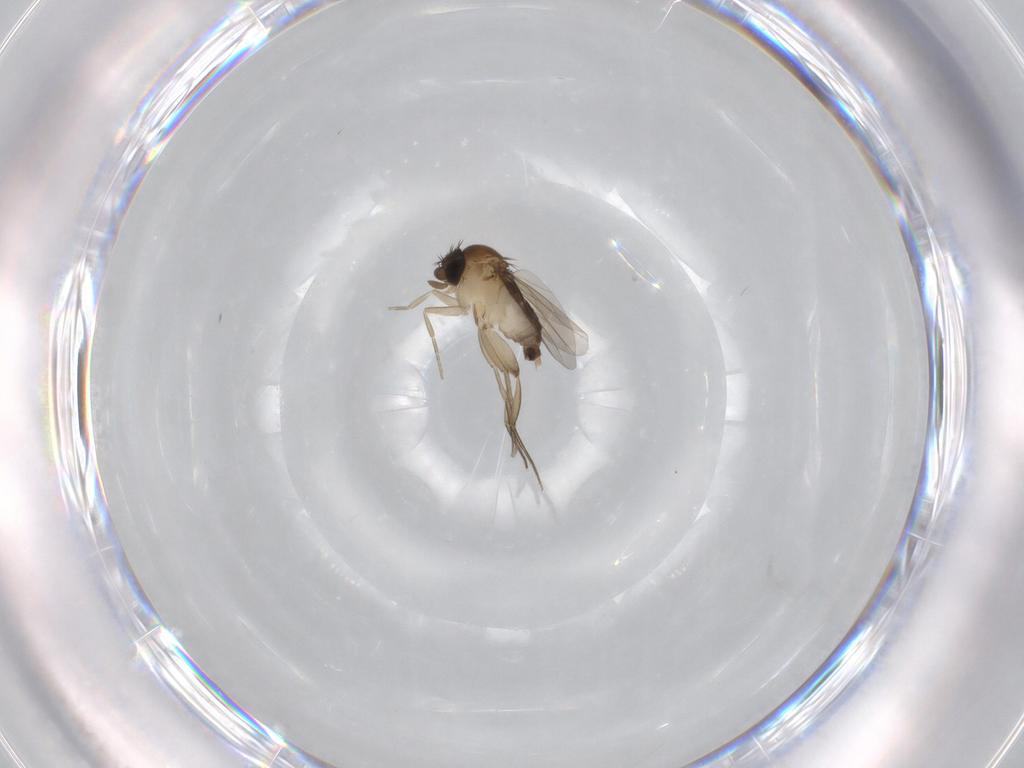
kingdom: Animalia
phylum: Arthropoda
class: Insecta
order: Diptera
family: Phoridae
